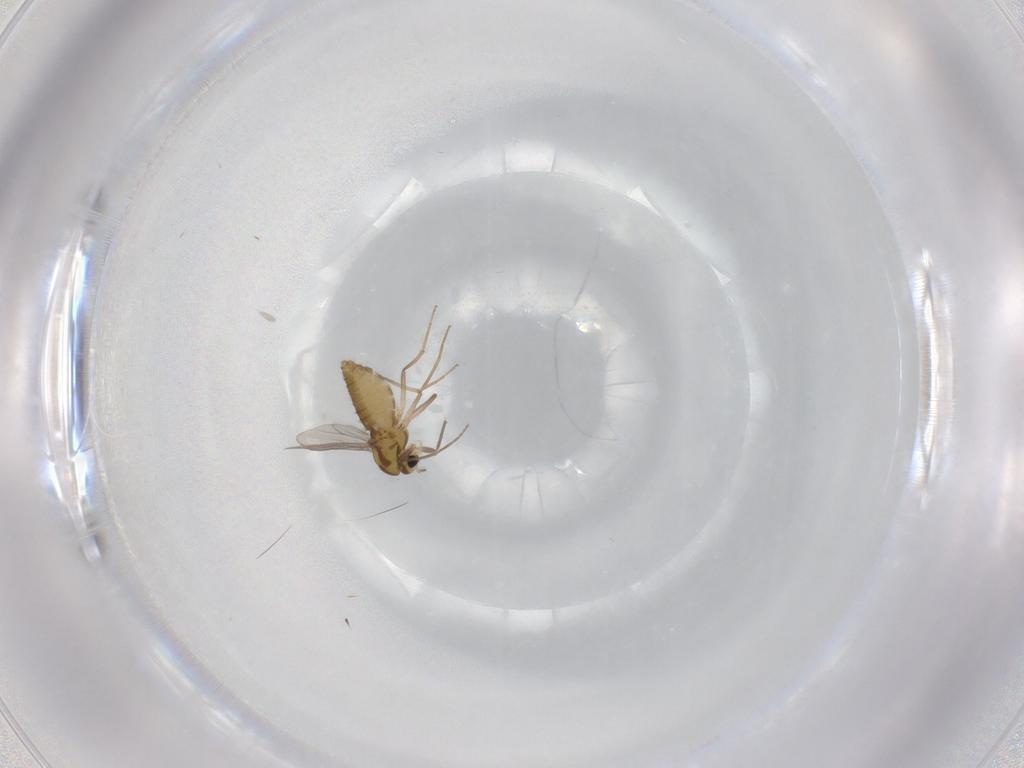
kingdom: Animalia
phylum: Arthropoda
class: Insecta
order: Diptera
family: Chironomidae
